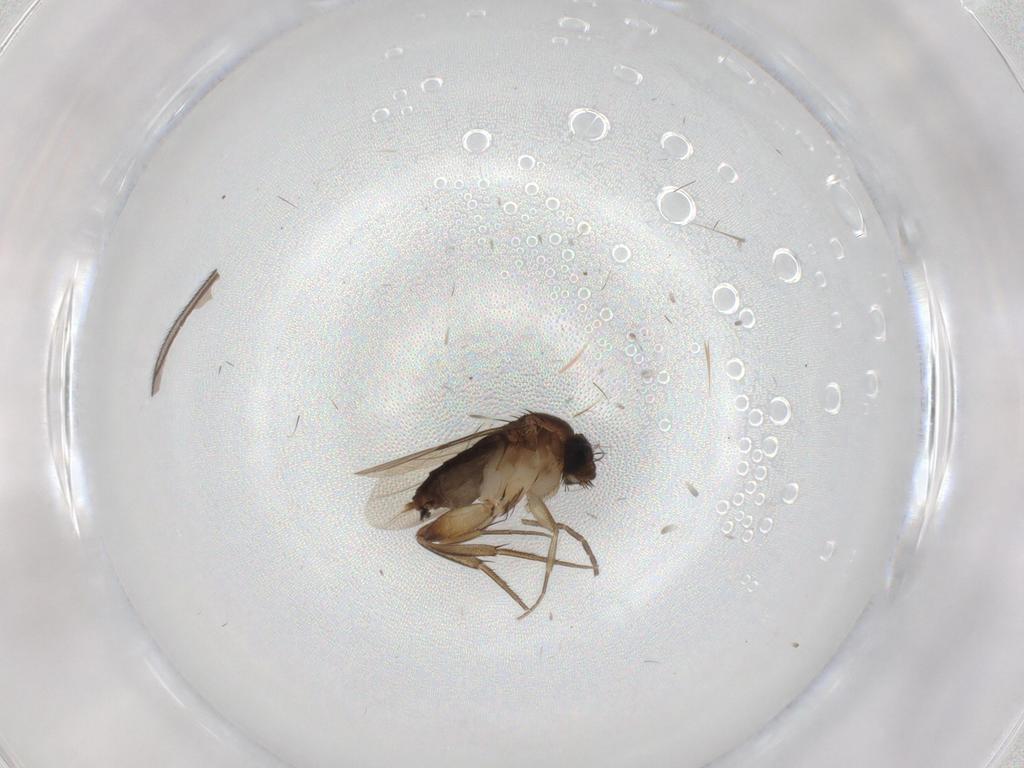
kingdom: Animalia
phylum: Arthropoda
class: Insecta
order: Diptera
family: Phoridae
